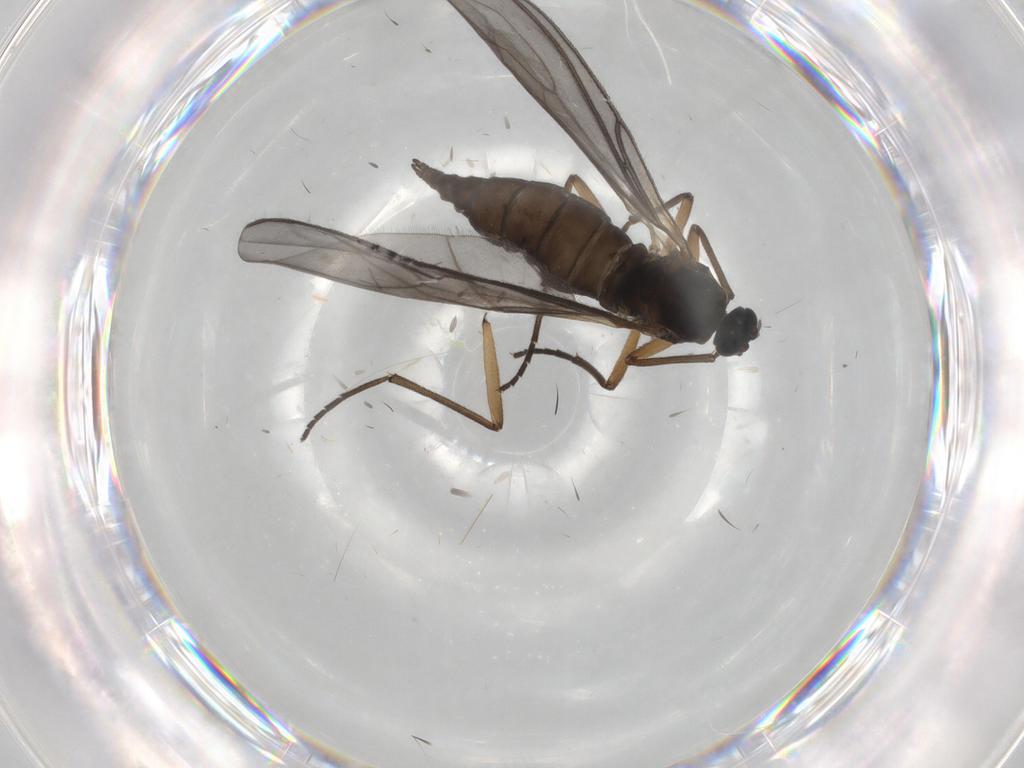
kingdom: Animalia
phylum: Arthropoda
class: Insecta
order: Diptera
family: Sciaridae
